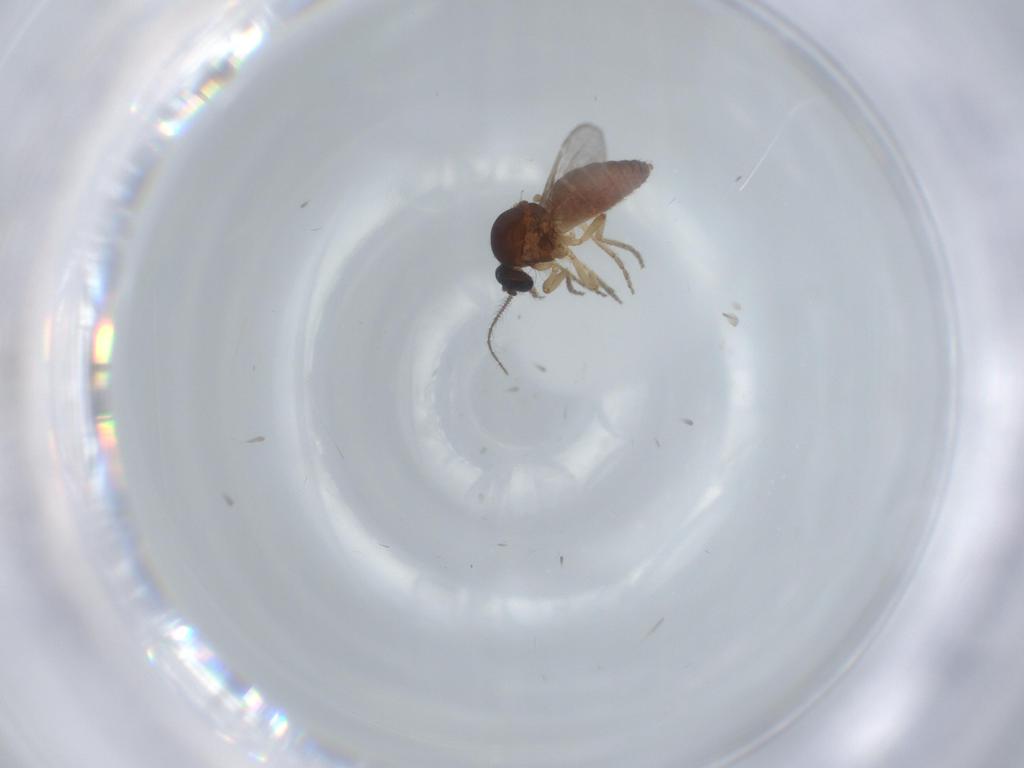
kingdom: Animalia
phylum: Arthropoda
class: Insecta
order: Diptera
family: Ceratopogonidae
